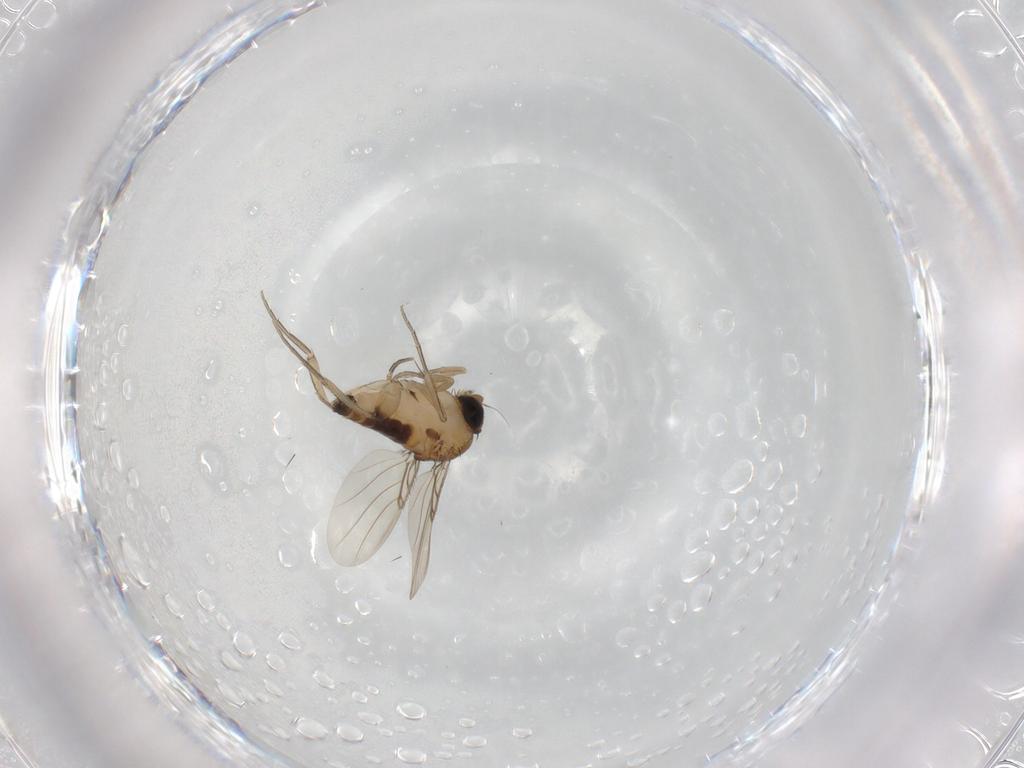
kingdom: Animalia
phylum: Arthropoda
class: Insecta
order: Diptera
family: Phoridae
